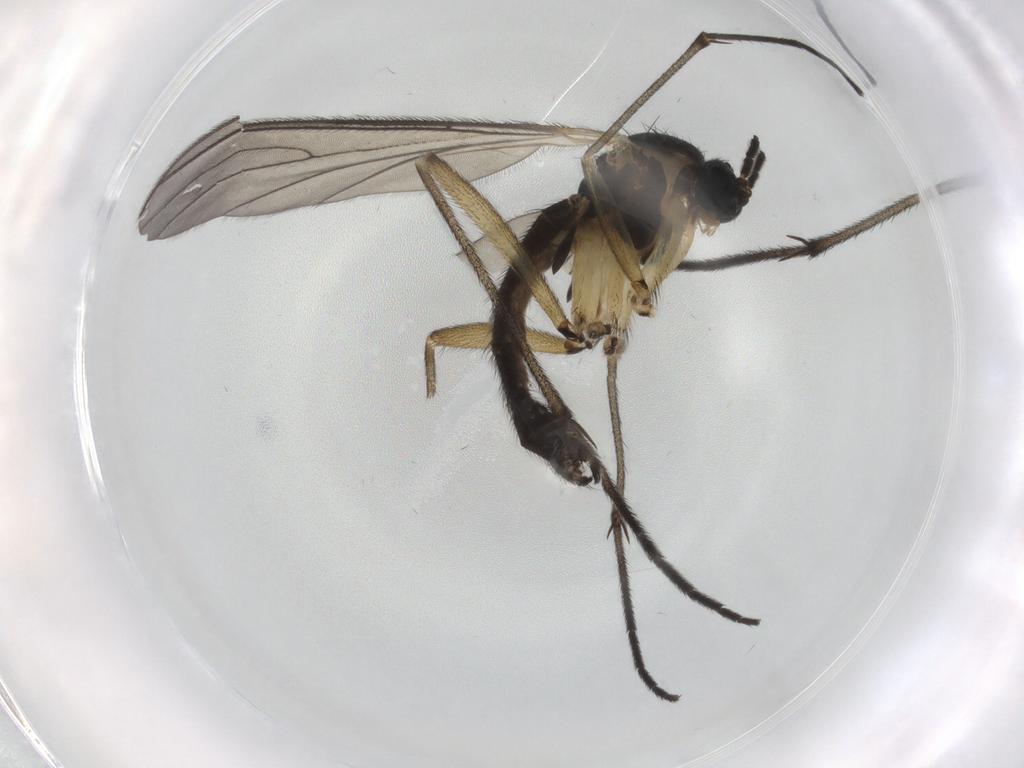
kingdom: Animalia
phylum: Arthropoda
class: Insecta
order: Diptera
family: Sciaridae
